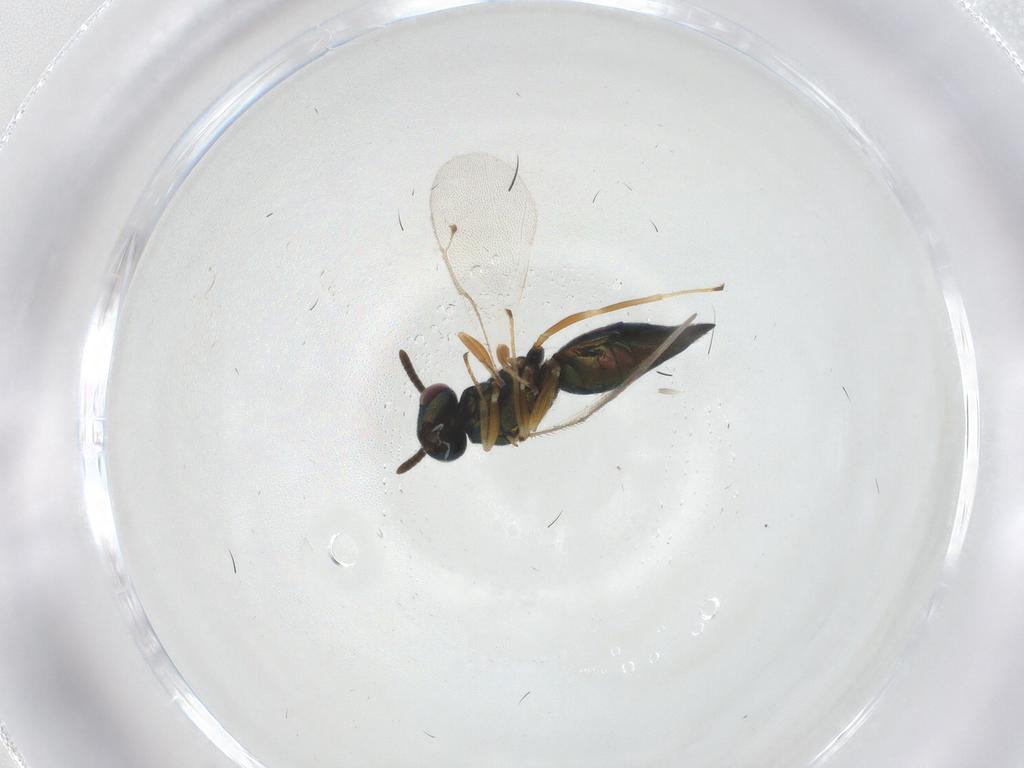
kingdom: Animalia
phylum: Arthropoda
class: Insecta
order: Hymenoptera
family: Pteromalidae
